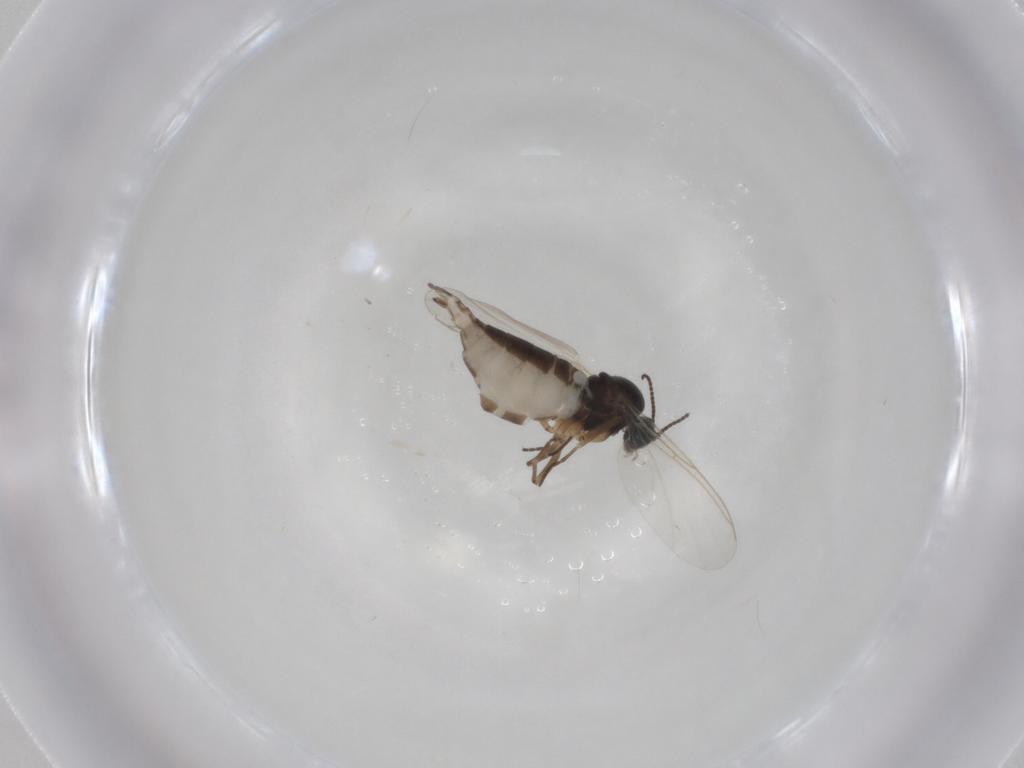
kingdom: Animalia
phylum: Arthropoda
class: Insecta
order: Diptera
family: Sciaridae
